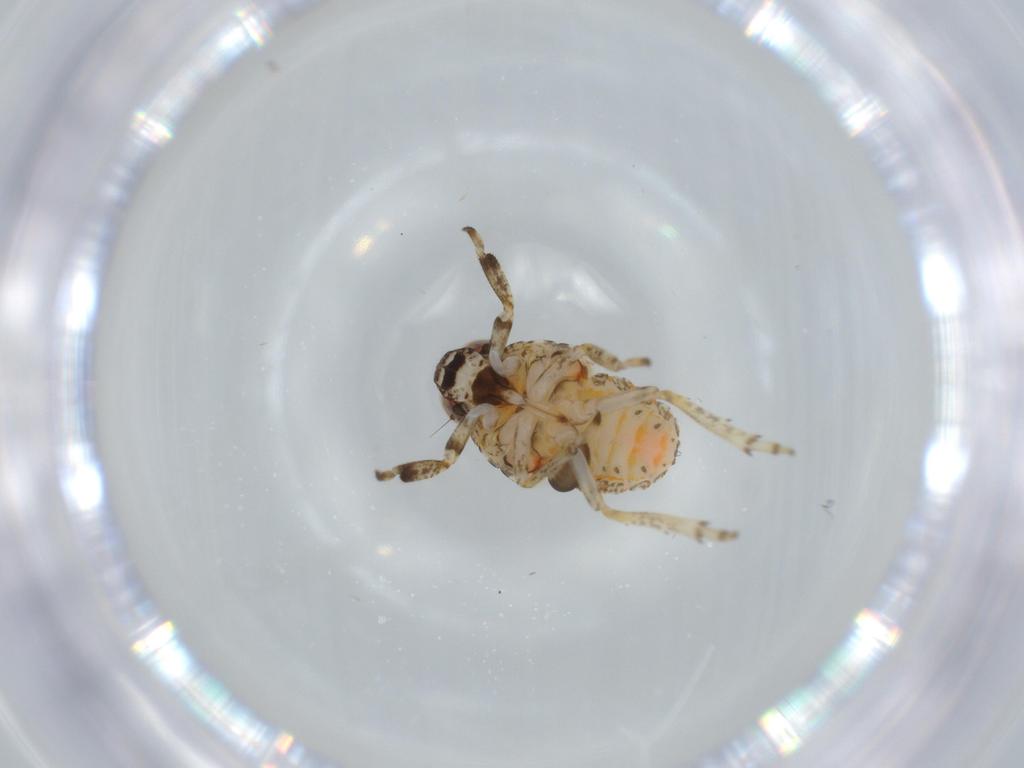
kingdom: Animalia
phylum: Arthropoda
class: Insecta
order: Hemiptera
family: Issidae
